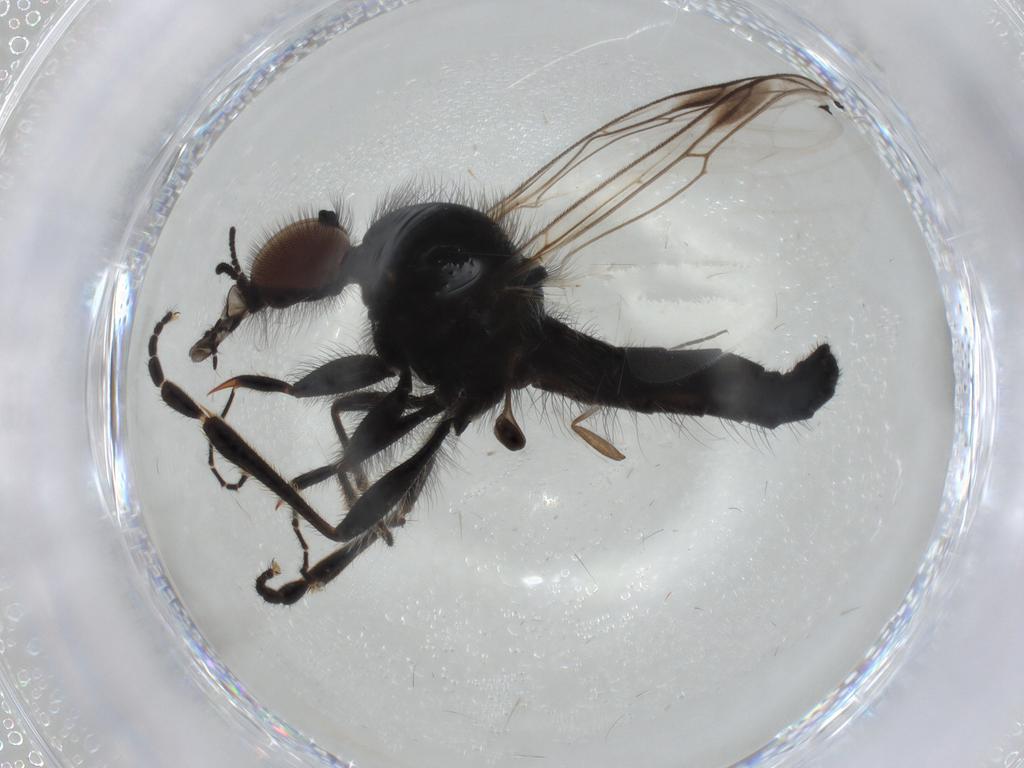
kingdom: Animalia
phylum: Arthropoda
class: Insecta
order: Diptera
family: Bibionidae
